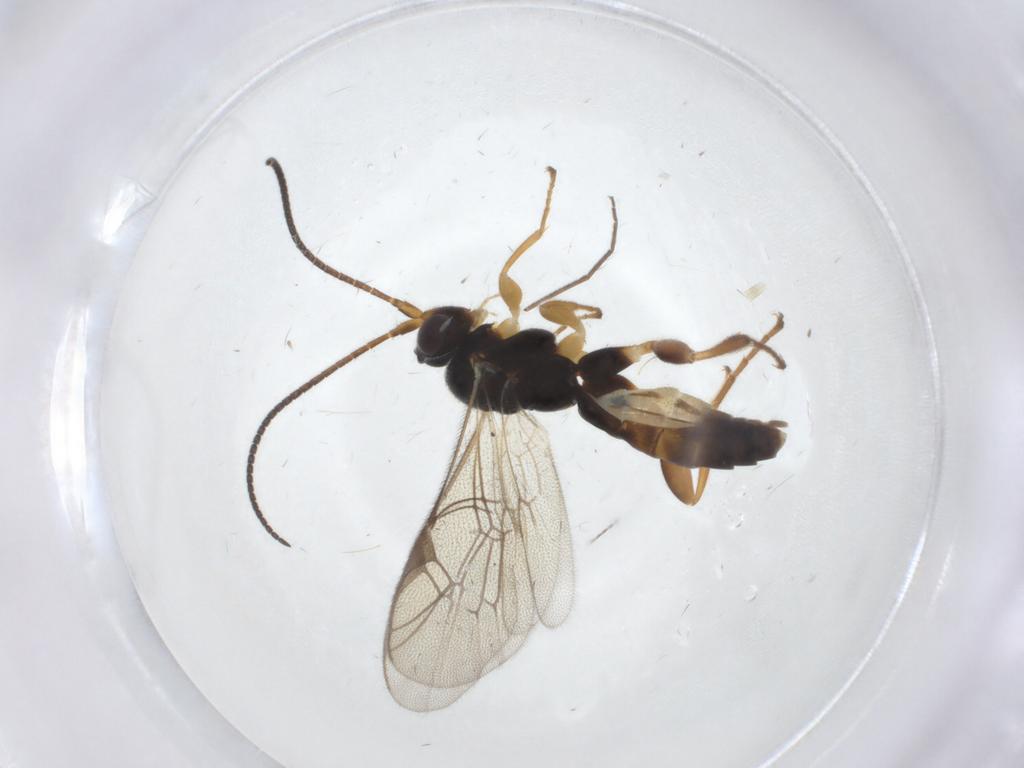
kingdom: Animalia
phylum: Arthropoda
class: Insecta
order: Hymenoptera
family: Ichneumonidae
